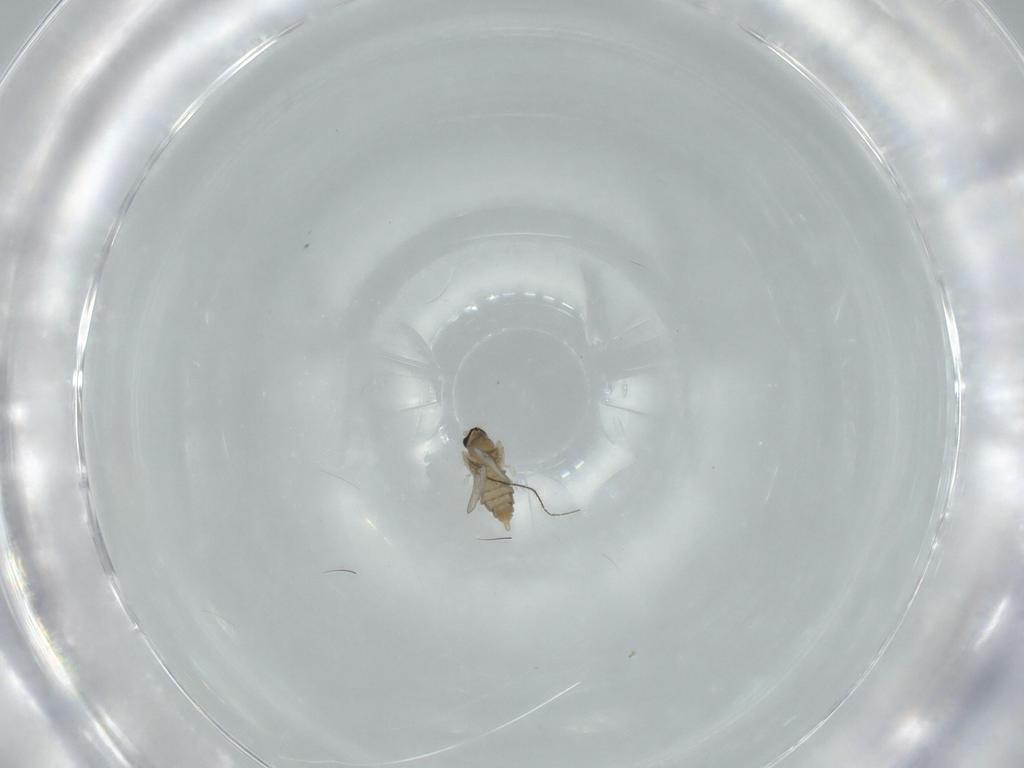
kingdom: Animalia
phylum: Arthropoda
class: Insecta
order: Diptera
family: Cecidomyiidae
